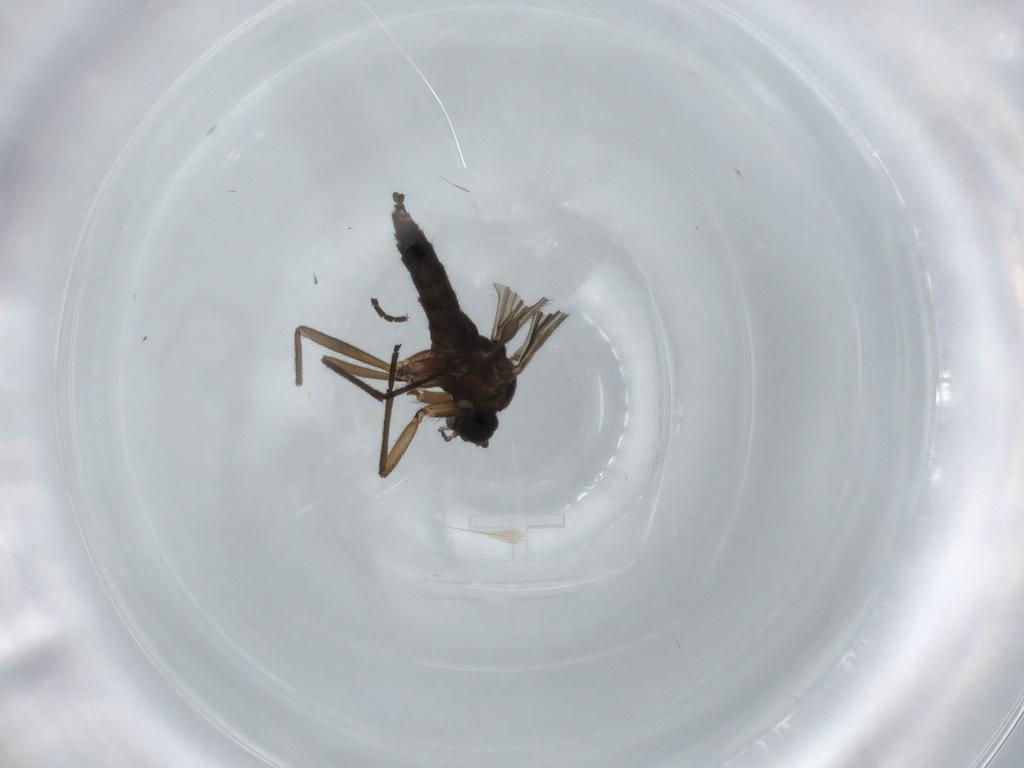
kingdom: Animalia
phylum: Arthropoda
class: Insecta
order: Diptera
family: Sciaridae
